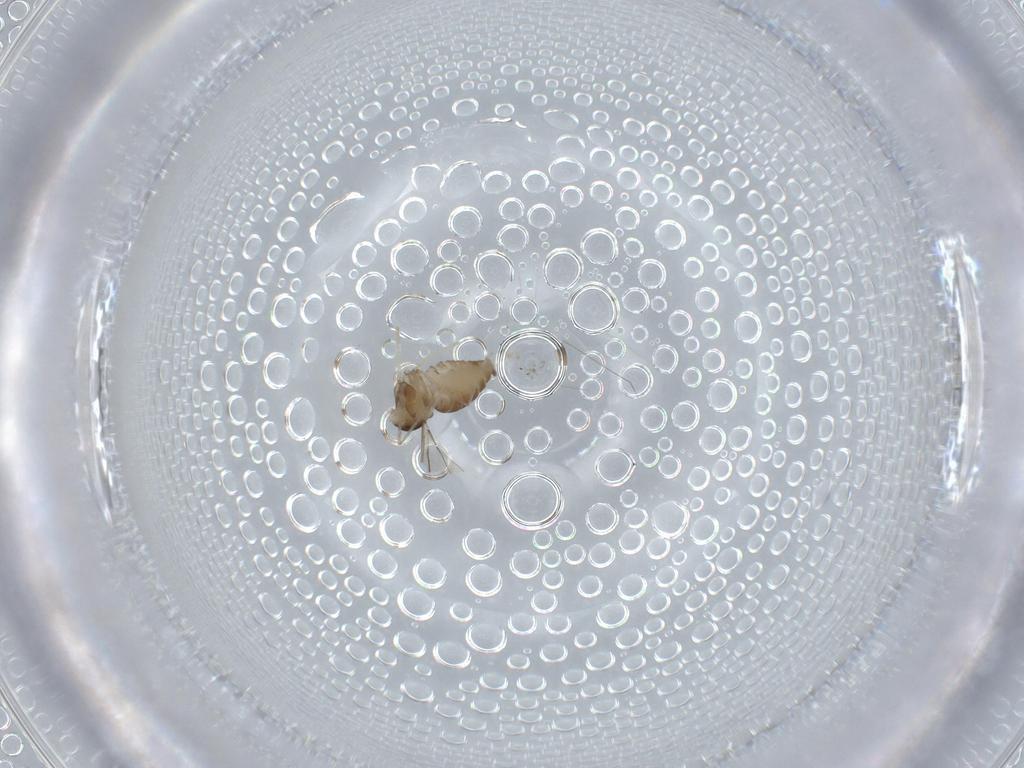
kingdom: Animalia
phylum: Arthropoda
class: Insecta
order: Diptera
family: Cecidomyiidae
